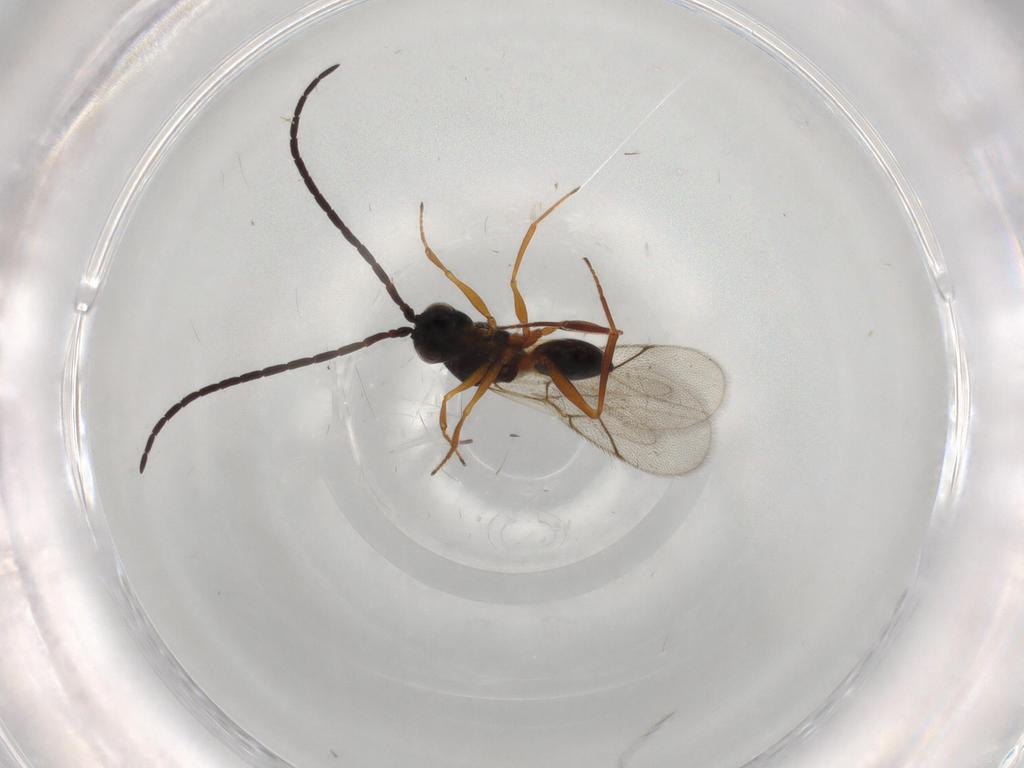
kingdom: Animalia
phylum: Arthropoda
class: Insecta
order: Hymenoptera
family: Figitidae
